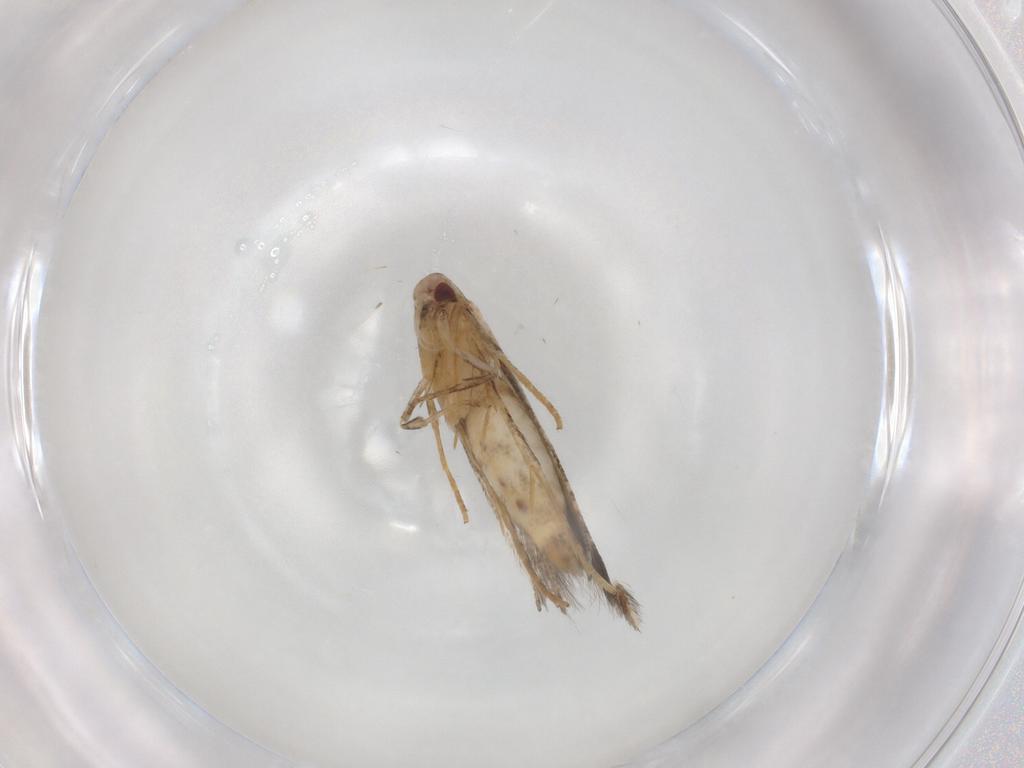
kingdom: Animalia
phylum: Arthropoda
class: Insecta
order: Lepidoptera
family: Cosmopterigidae
